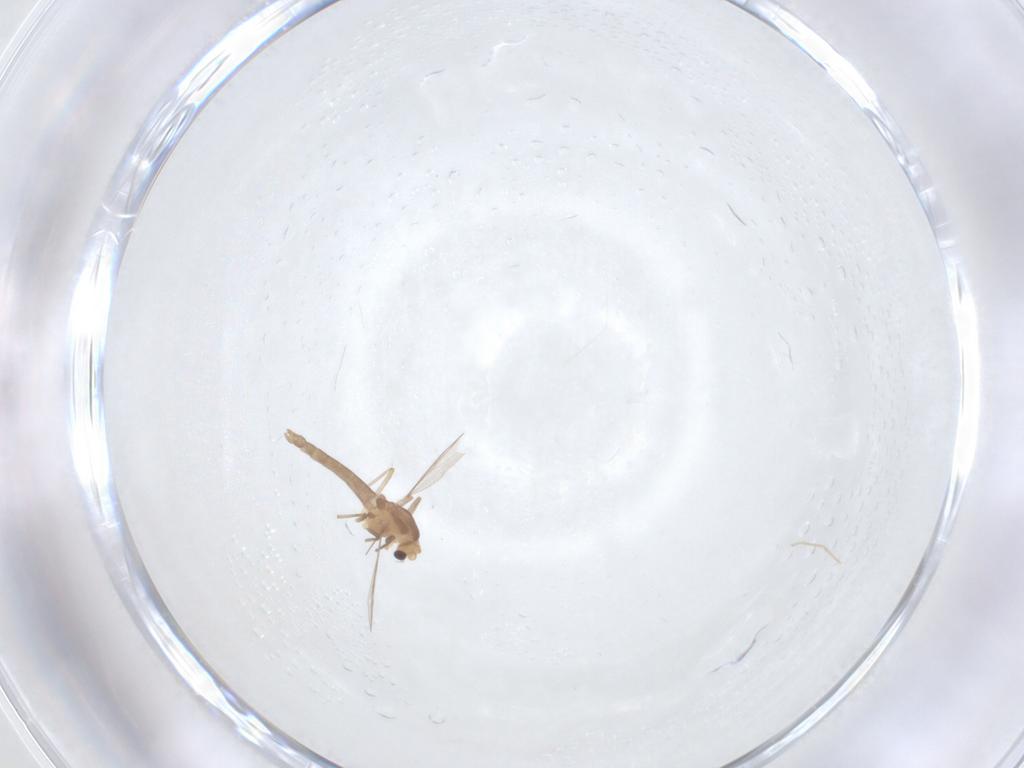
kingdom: Animalia
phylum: Arthropoda
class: Insecta
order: Diptera
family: Chironomidae
